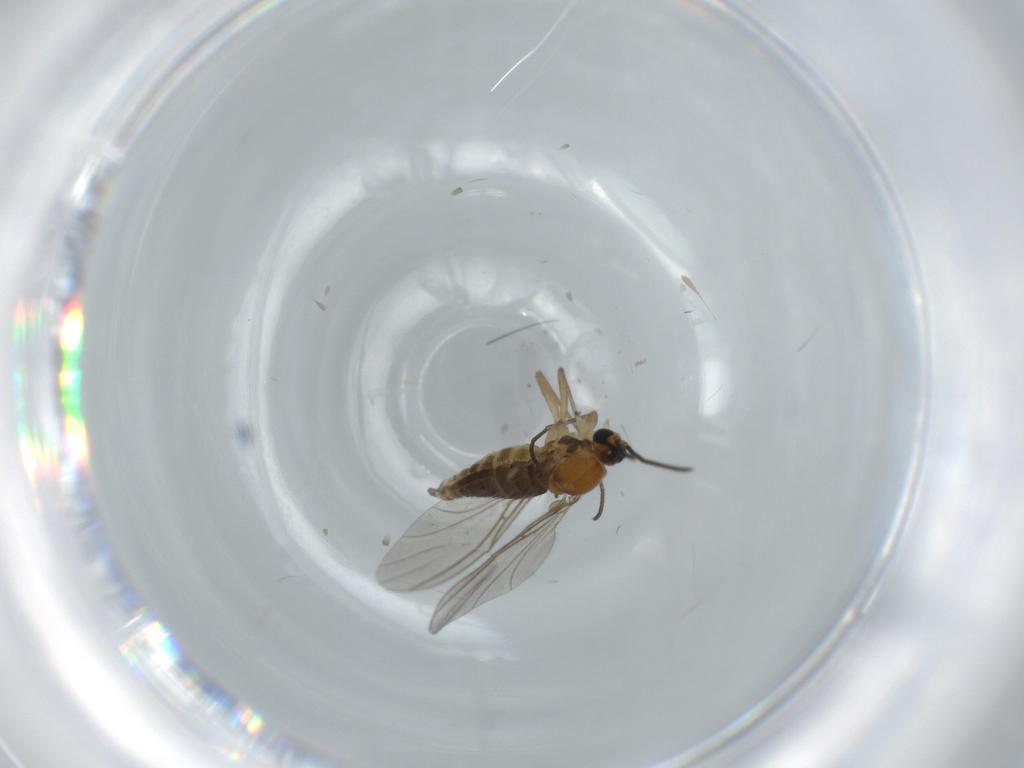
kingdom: Animalia
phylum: Arthropoda
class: Insecta
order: Diptera
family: Sciaridae
